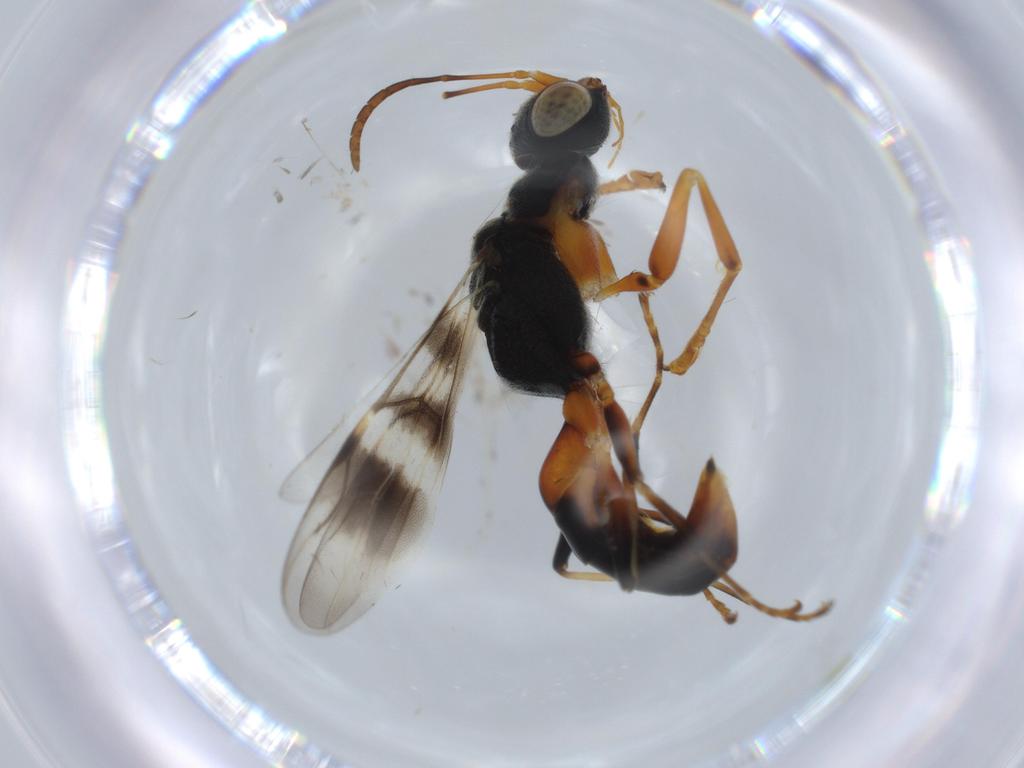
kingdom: Animalia
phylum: Arthropoda
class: Insecta
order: Hymenoptera
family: Dryinidae
